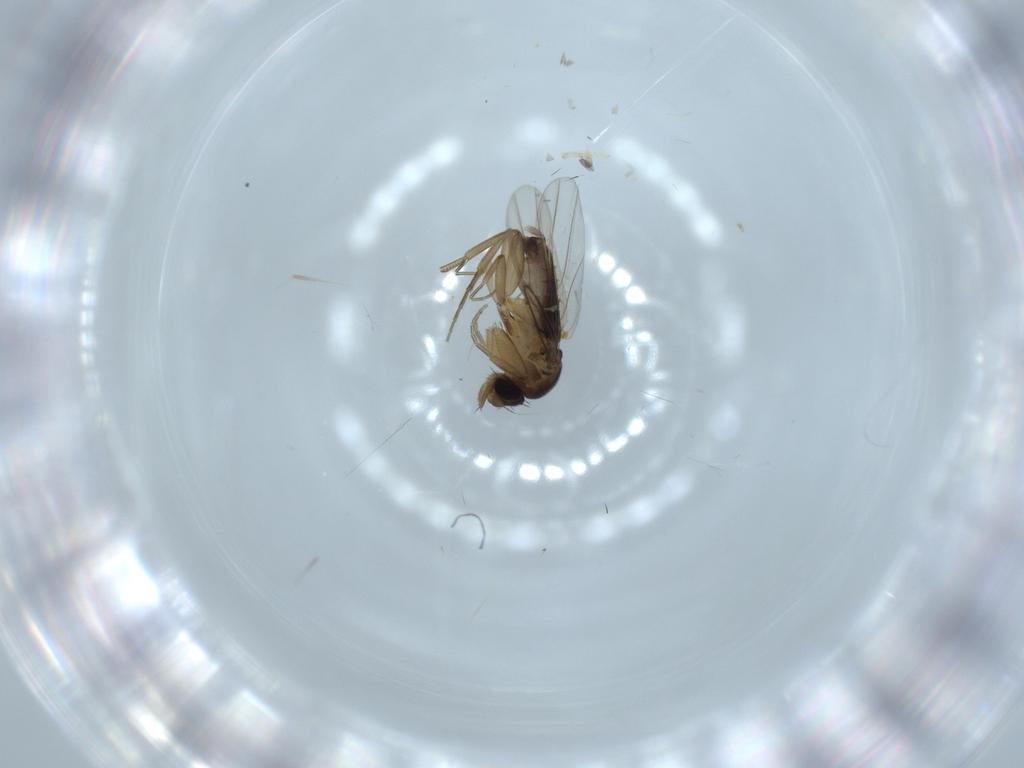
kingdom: Animalia
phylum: Arthropoda
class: Insecta
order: Diptera
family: Phoridae
